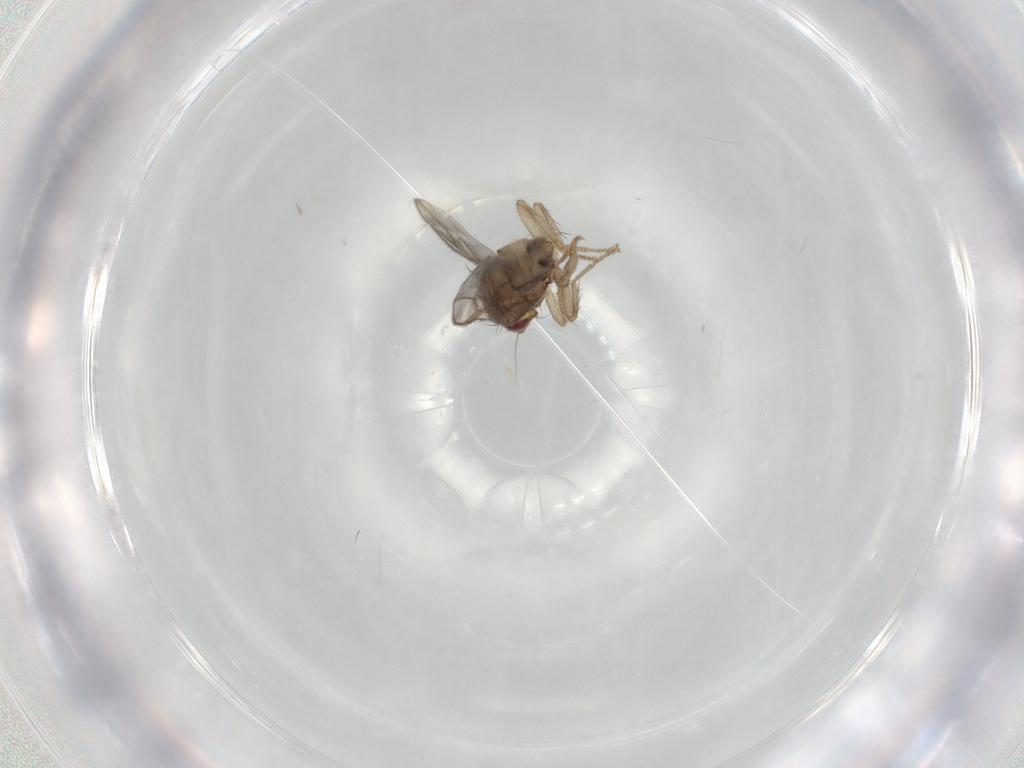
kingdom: Animalia
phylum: Arthropoda
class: Insecta
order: Diptera
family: Sphaeroceridae
